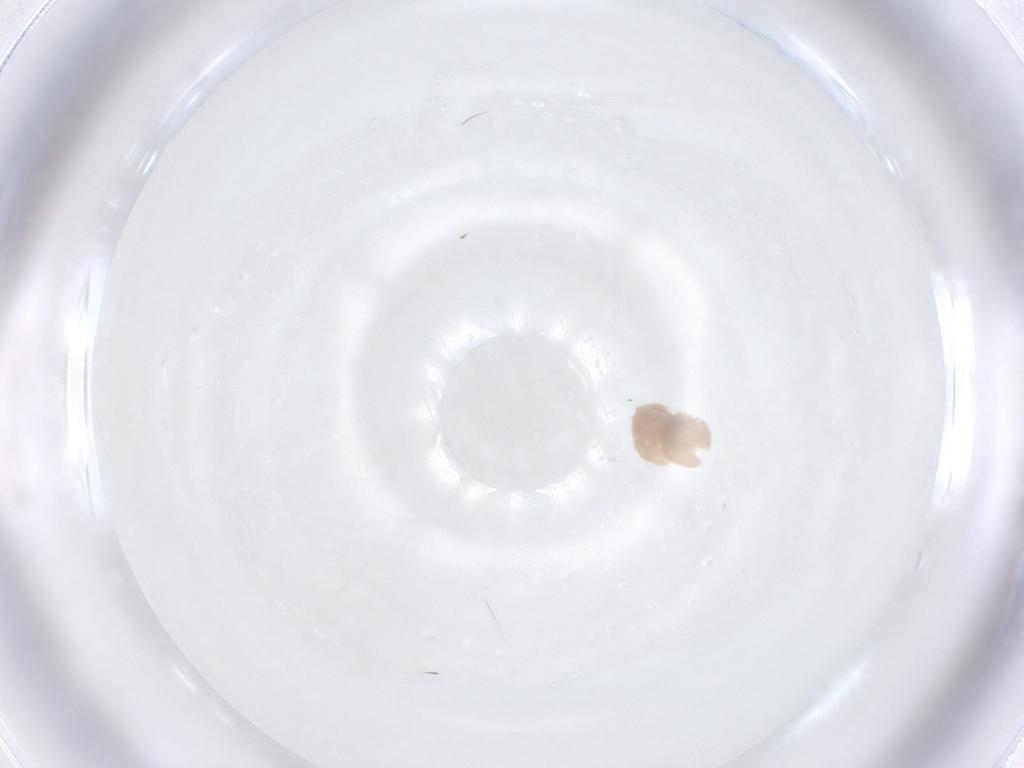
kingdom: Animalia
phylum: Arthropoda
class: Arachnida
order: Araneae
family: Pholcidae
